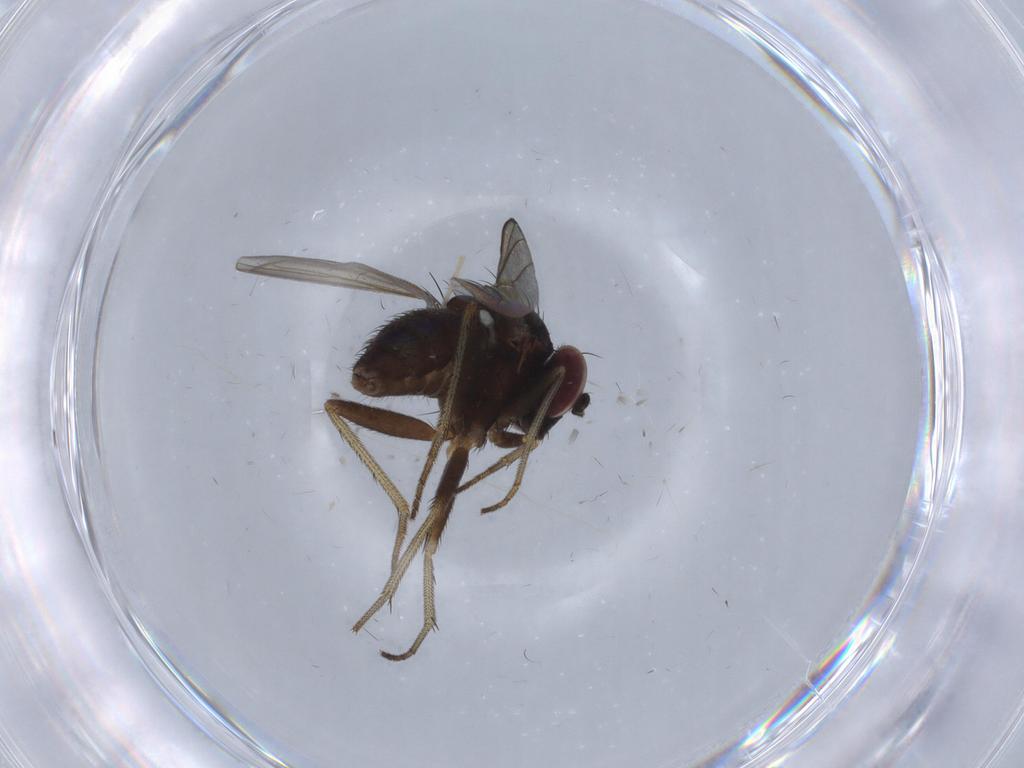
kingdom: Animalia
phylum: Arthropoda
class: Insecta
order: Diptera
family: Dolichopodidae
